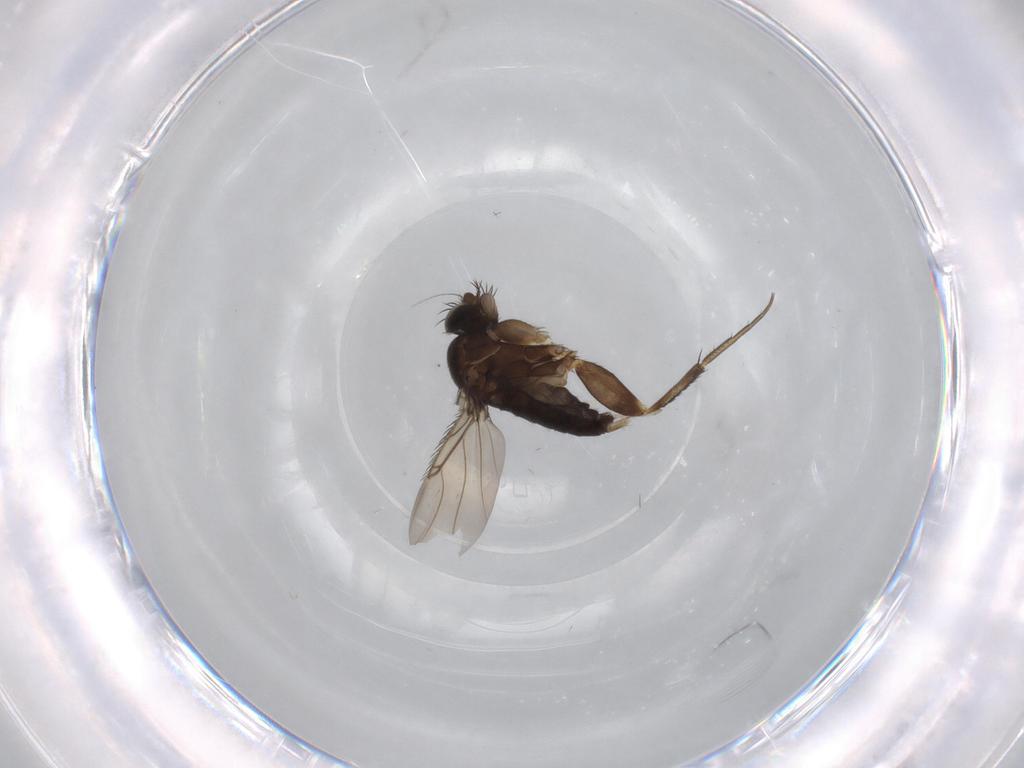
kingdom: Animalia
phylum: Arthropoda
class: Insecta
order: Diptera
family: Phoridae
